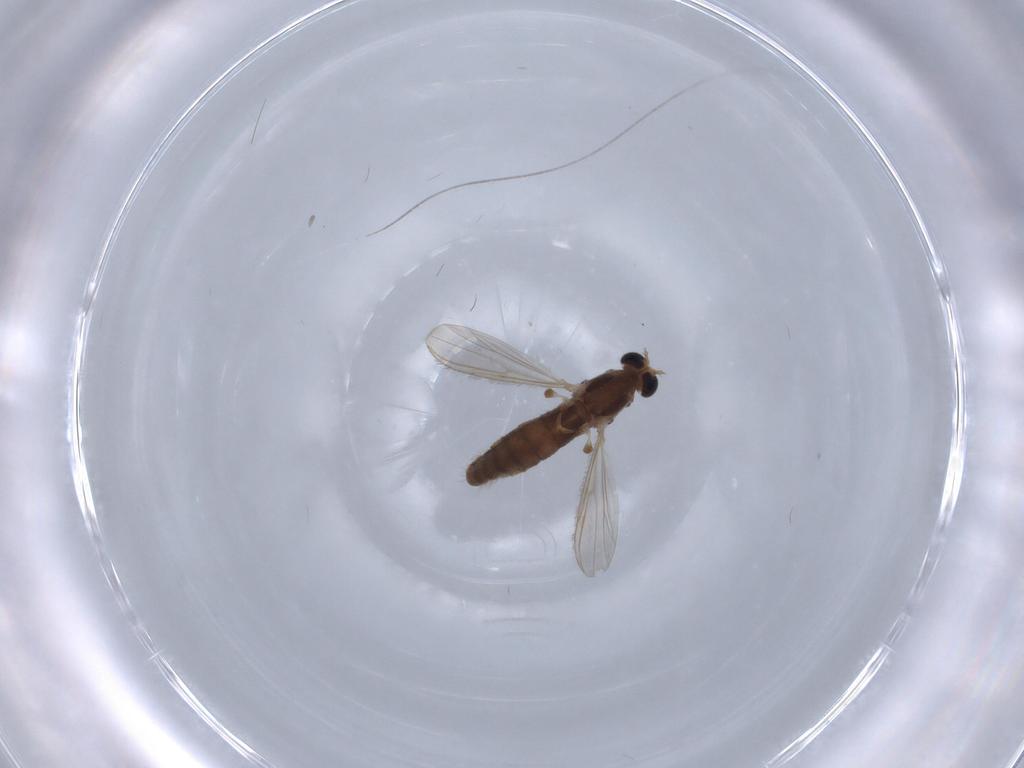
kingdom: Animalia
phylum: Arthropoda
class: Insecta
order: Diptera
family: Chironomidae
